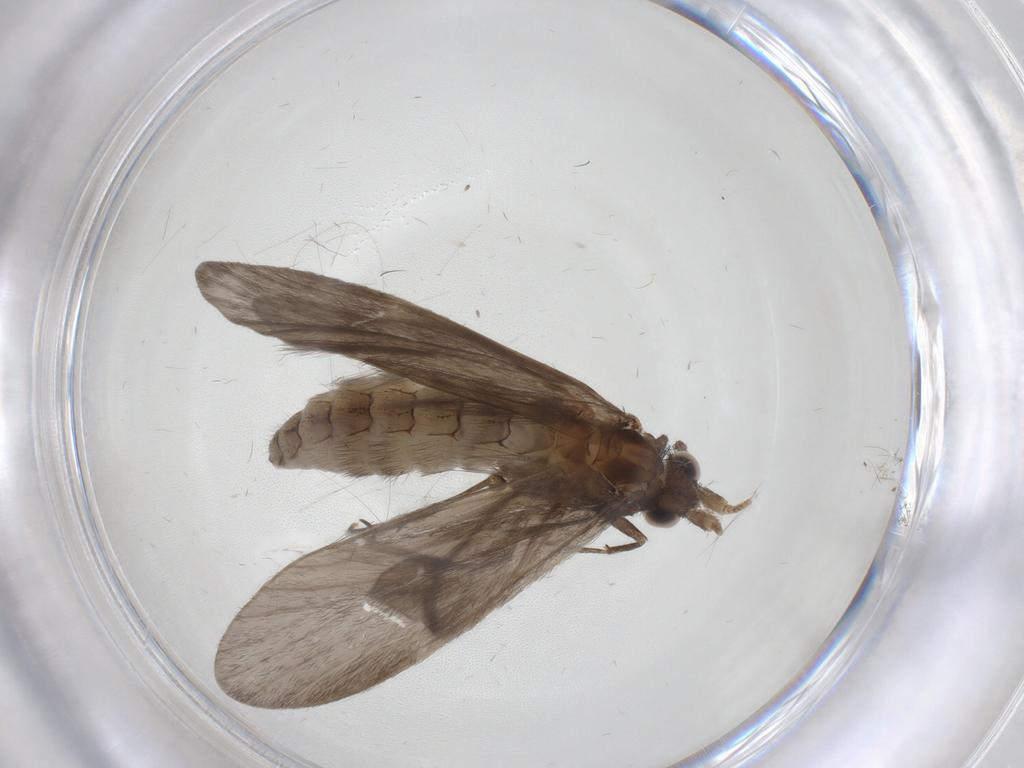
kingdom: Animalia
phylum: Arthropoda
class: Insecta
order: Trichoptera
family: Helicopsychidae
